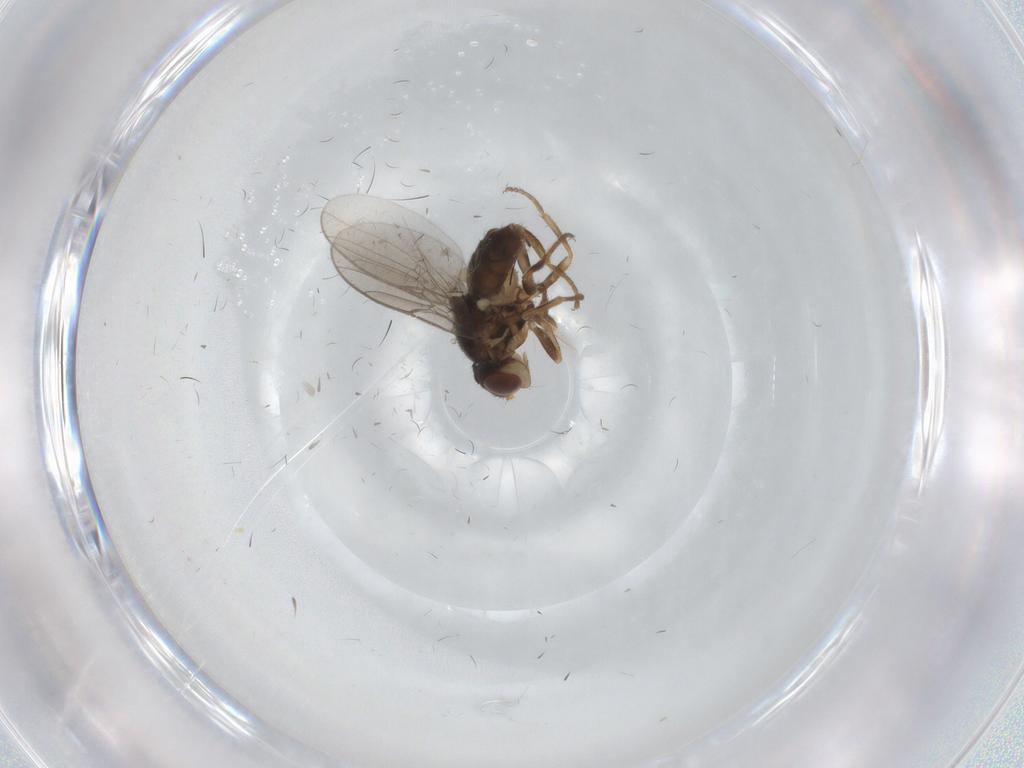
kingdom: Animalia
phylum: Arthropoda
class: Insecta
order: Diptera
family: Chloropidae
